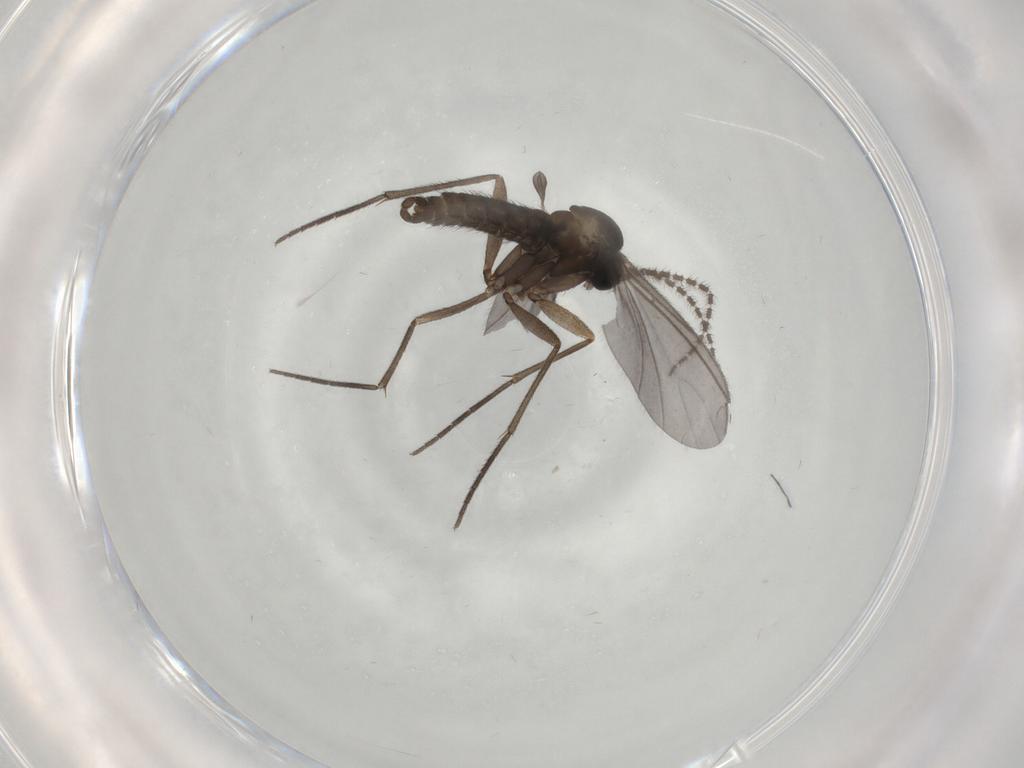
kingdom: Animalia
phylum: Arthropoda
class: Insecta
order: Diptera
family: Sciaridae
